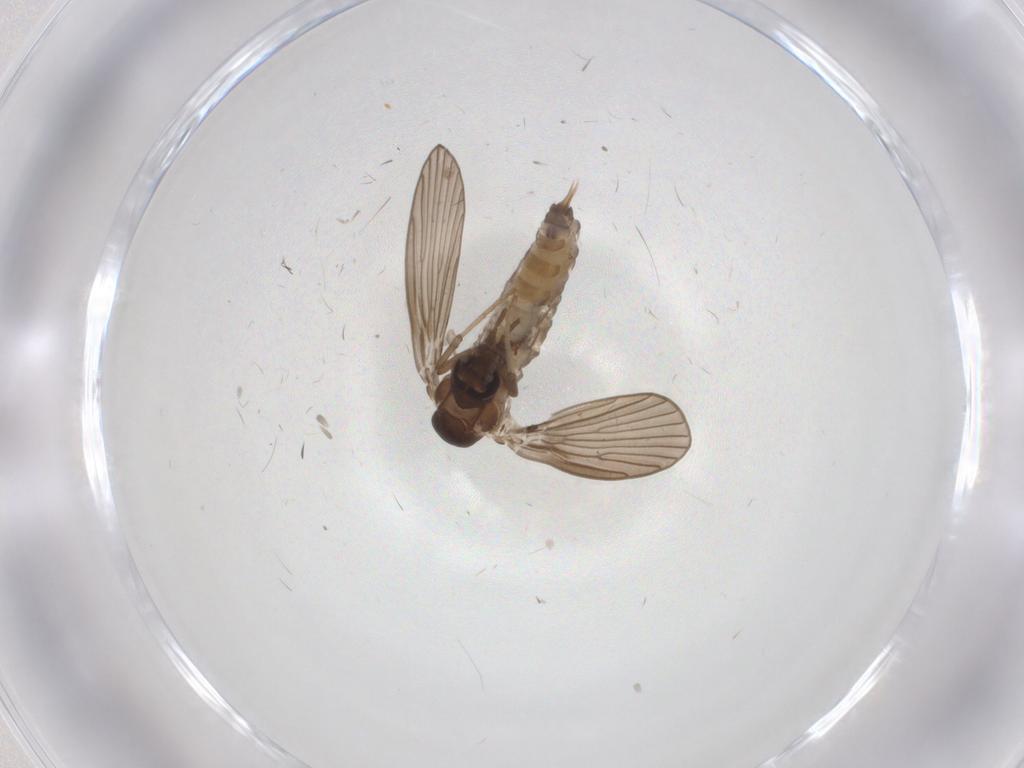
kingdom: Animalia
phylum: Arthropoda
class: Insecta
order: Diptera
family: Psychodidae
